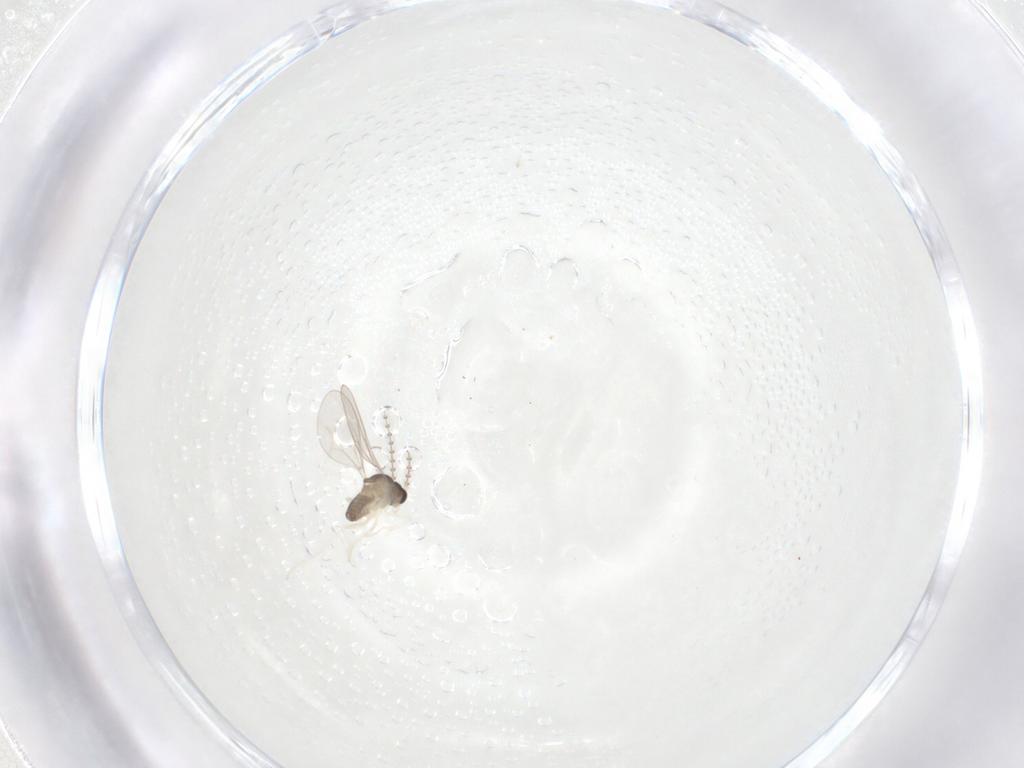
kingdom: Animalia
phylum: Arthropoda
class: Insecta
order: Diptera
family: Cecidomyiidae
